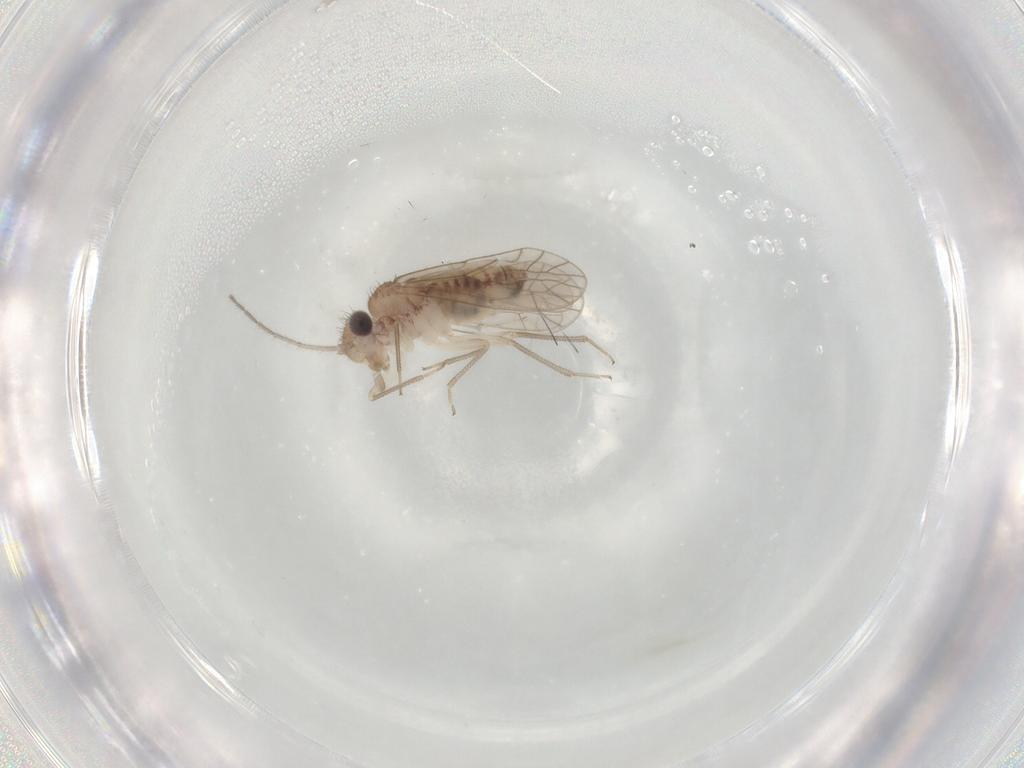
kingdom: Animalia
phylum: Arthropoda
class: Insecta
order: Psocodea
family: Caeciliusidae
